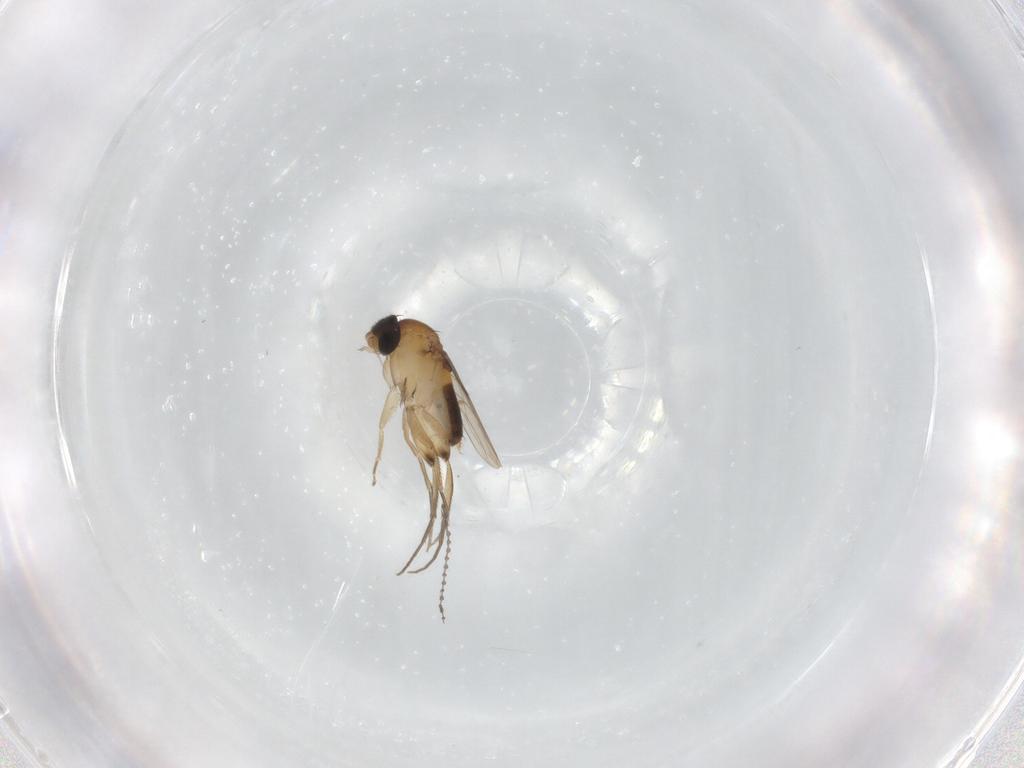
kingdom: Animalia
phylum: Arthropoda
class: Insecta
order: Diptera
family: Cecidomyiidae
